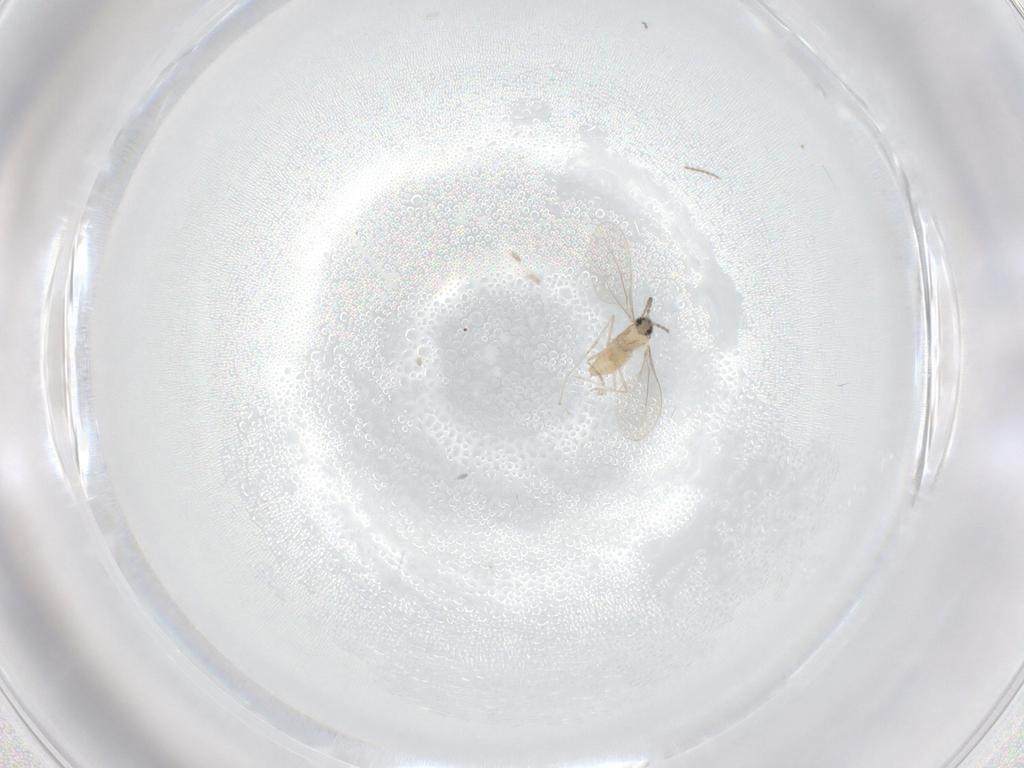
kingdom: Animalia
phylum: Arthropoda
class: Insecta
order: Diptera
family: Cecidomyiidae
